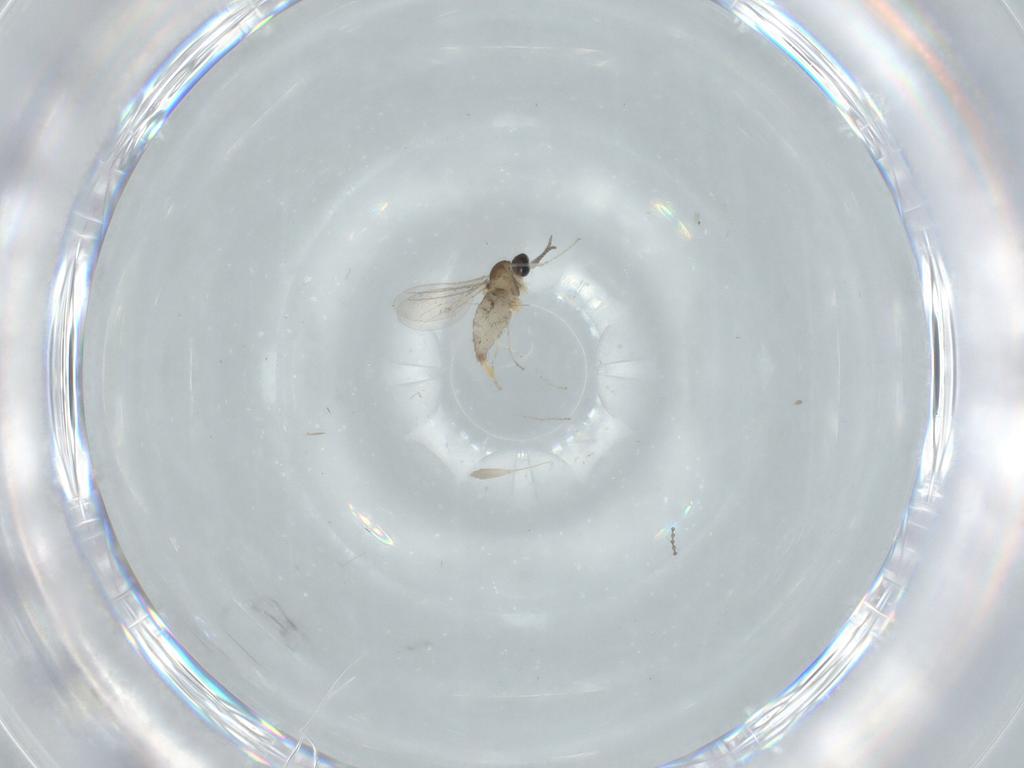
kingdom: Animalia
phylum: Arthropoda
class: Insecta
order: Diptera
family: Cecidomyiidae
